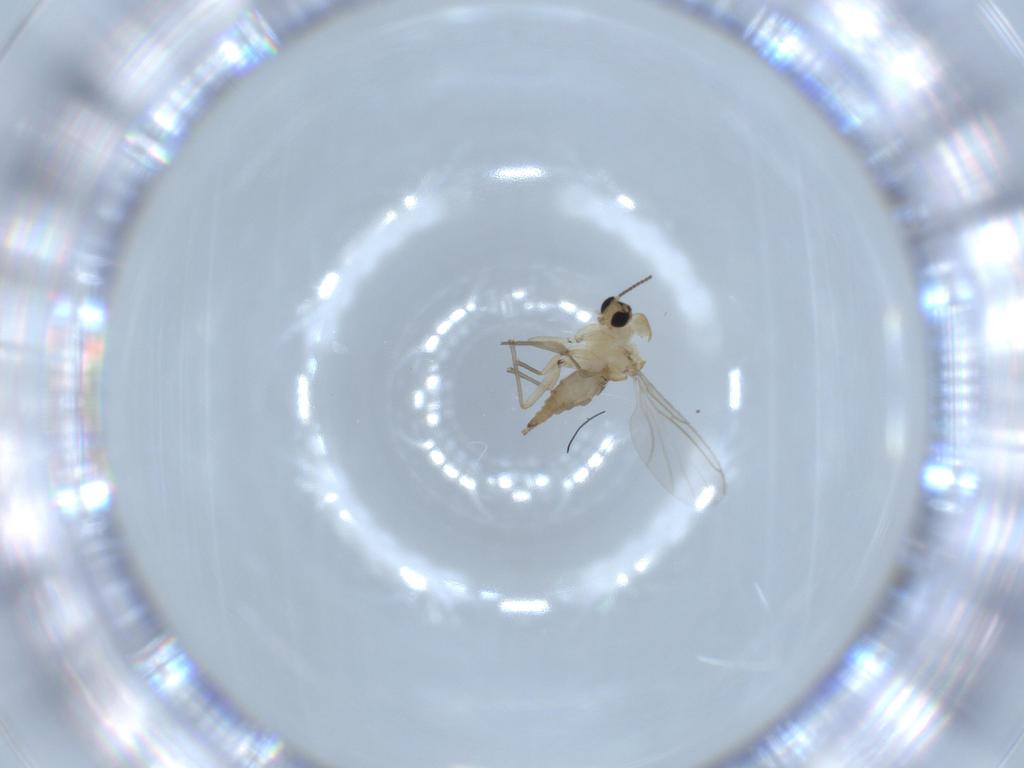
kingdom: Animalia
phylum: Arthropoda
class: Insecta
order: Diptera
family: Sciaridae
